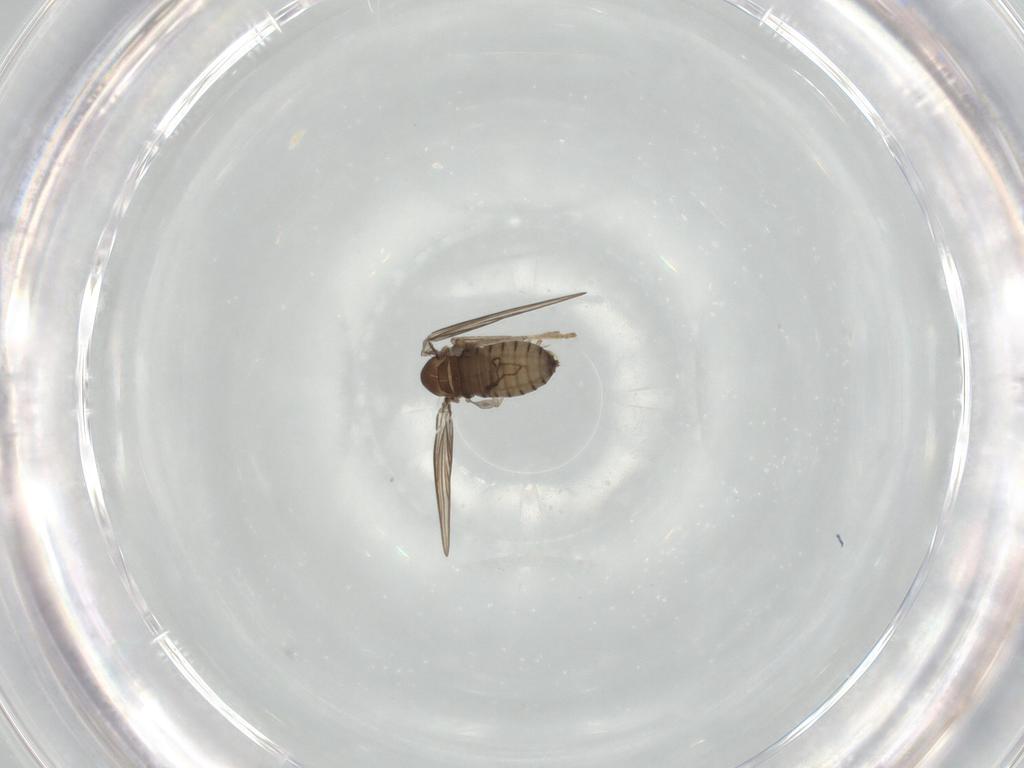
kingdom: Animalia
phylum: Arthropoda
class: Insecta
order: Diptera
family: Psychodidae
